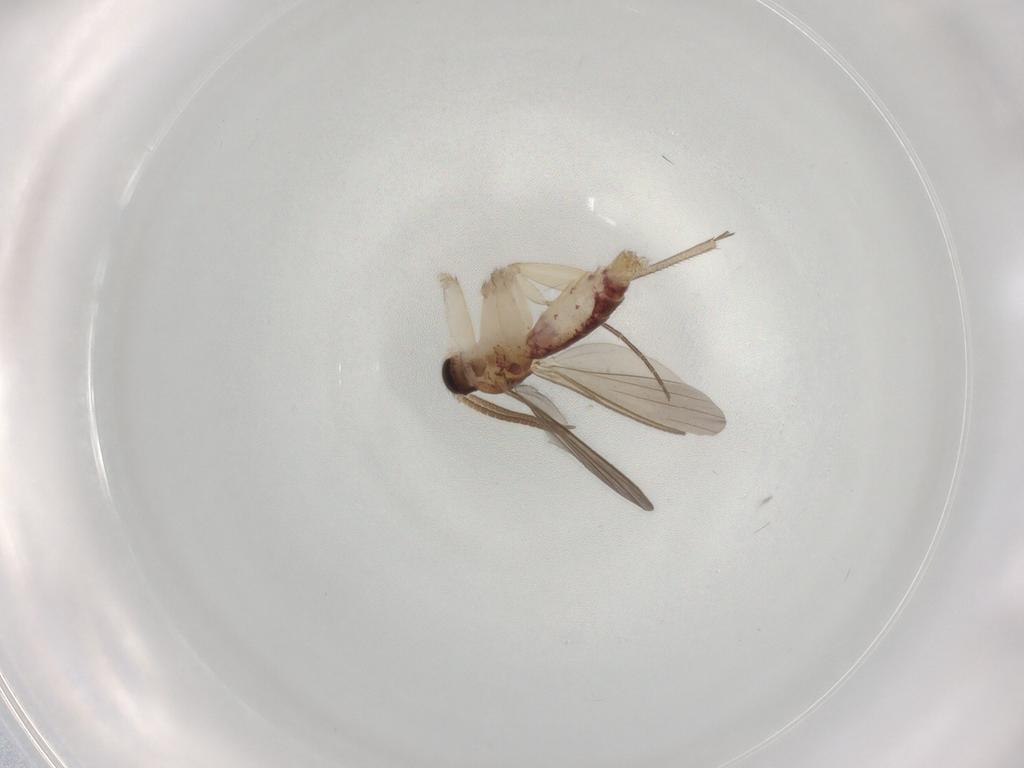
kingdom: Animalia
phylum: Arthropoda
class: Insecta
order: Diptera
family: Mycetophilidae
